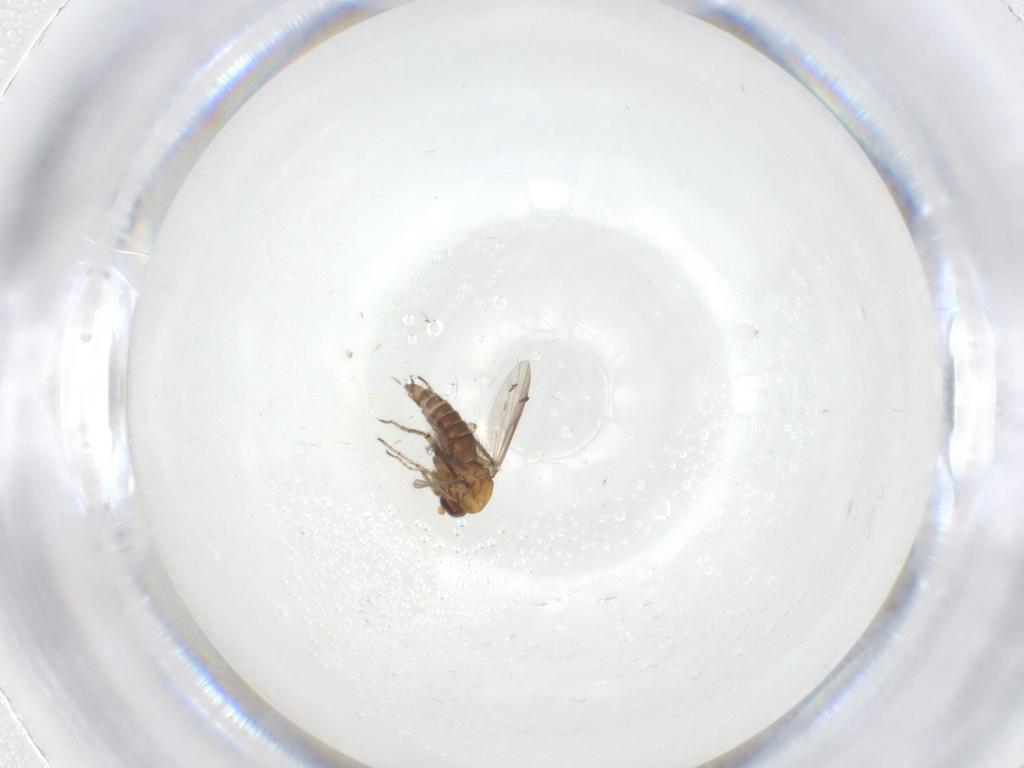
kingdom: Animalia
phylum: Arthropoda
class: Insecta
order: Diptera
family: Ceratopogonidae
